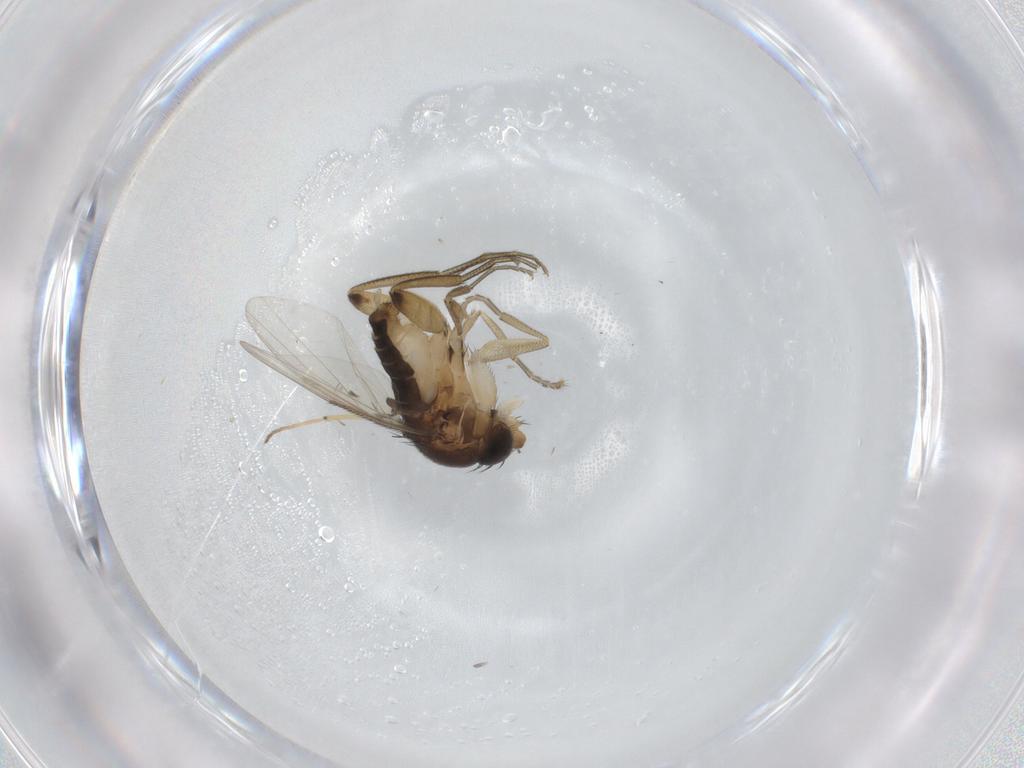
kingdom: Animalia
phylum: Arthropoda
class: Insecta
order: Diptera
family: Phoridae
